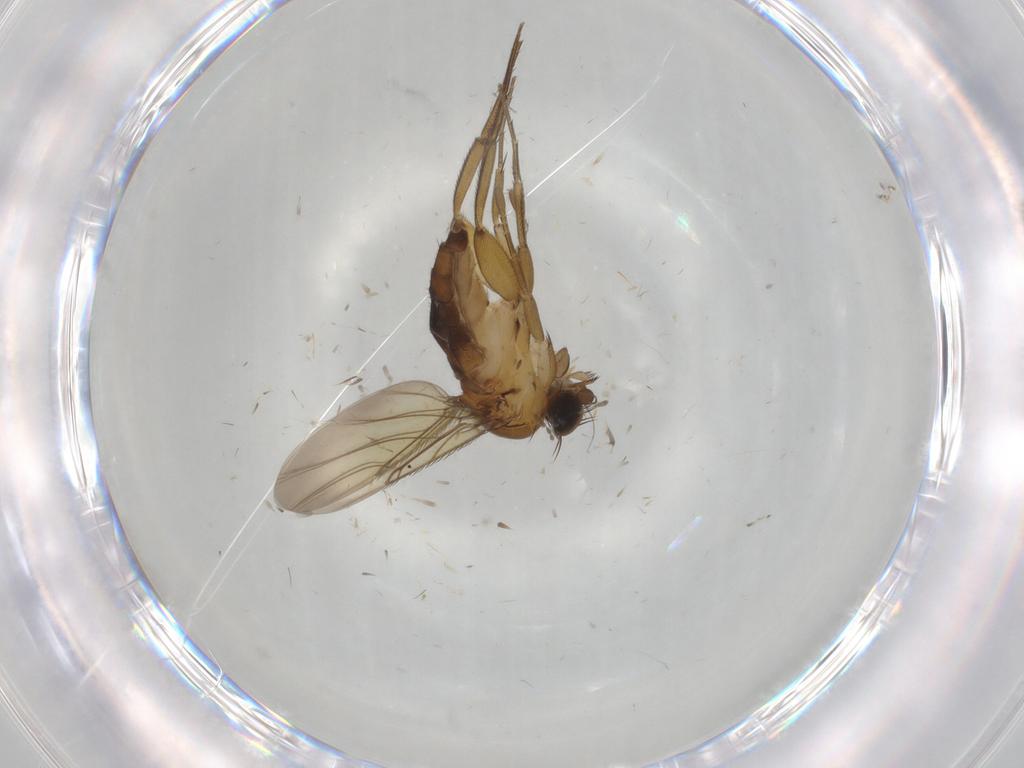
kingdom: Animalia
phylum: Arthropoda
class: Insecta
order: Diptera
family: Phoridae
